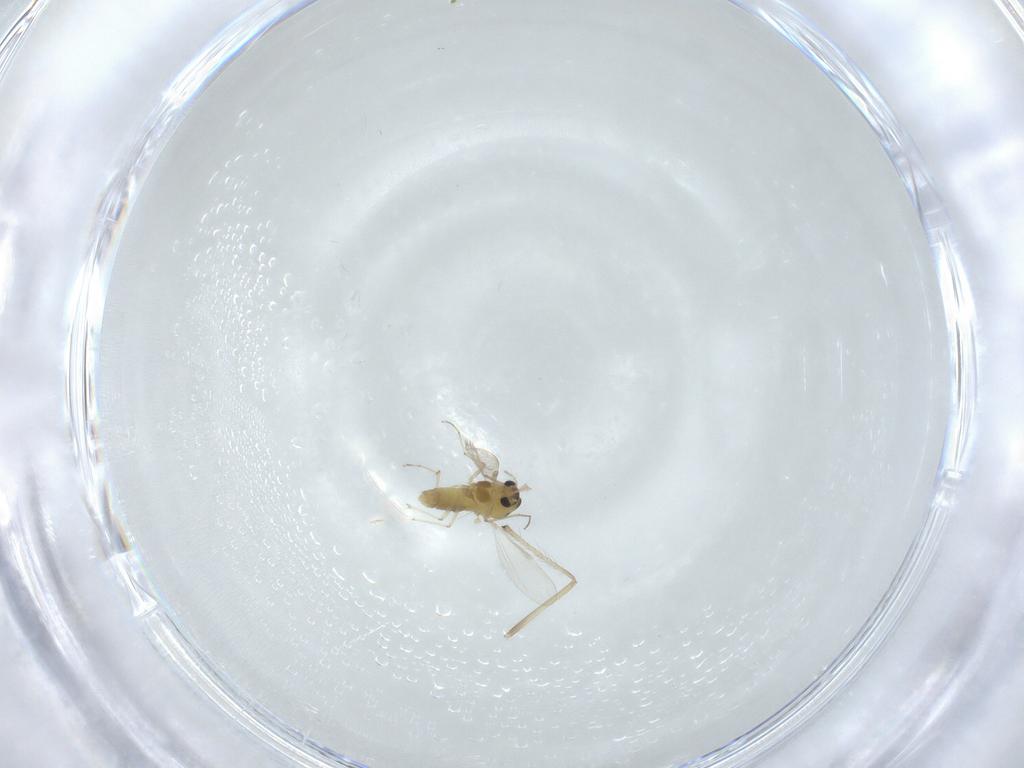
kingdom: Animalia
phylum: Arthropoda
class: Insecta
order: Diptera
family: Chironomidae
